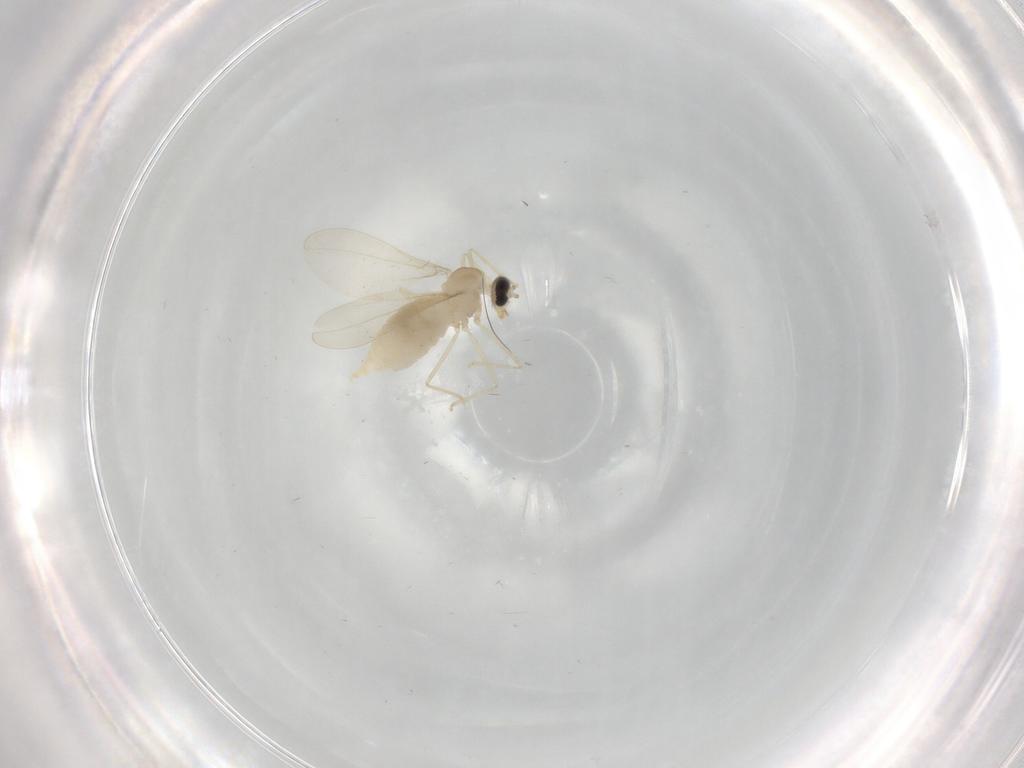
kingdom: Animalia
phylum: Arthropoda
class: Insecta
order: Diptera
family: Cecidomyiidae
